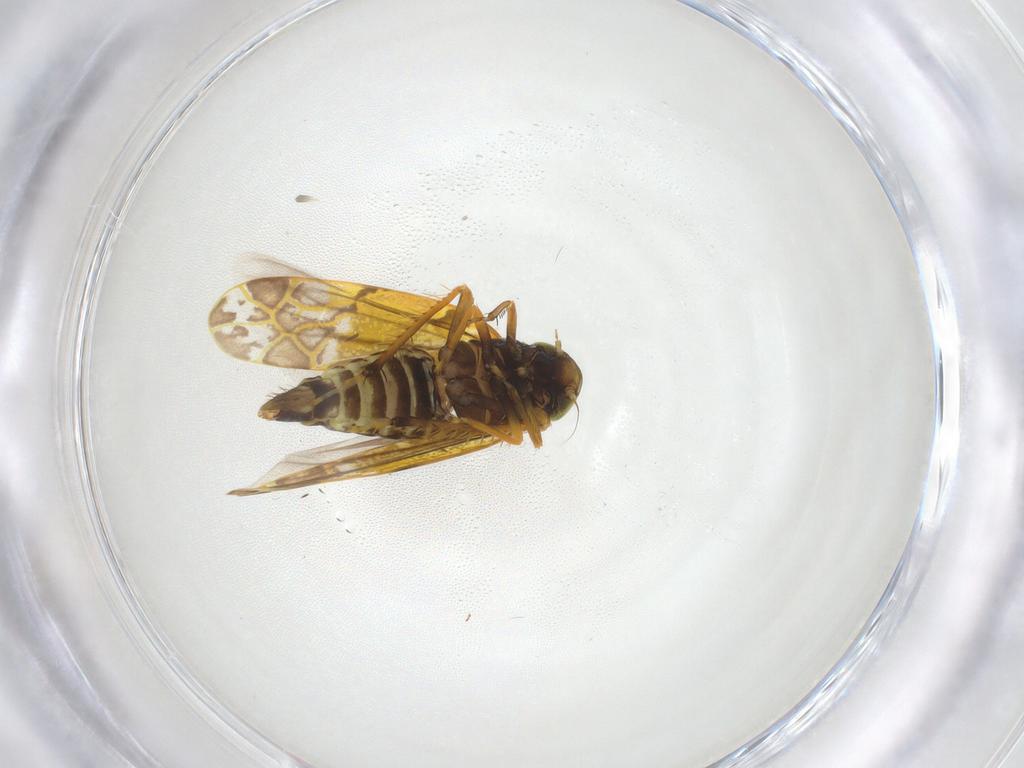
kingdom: Animalia
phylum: Arthropoda
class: Insecta
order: Hemiptera
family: Cicadellidae
